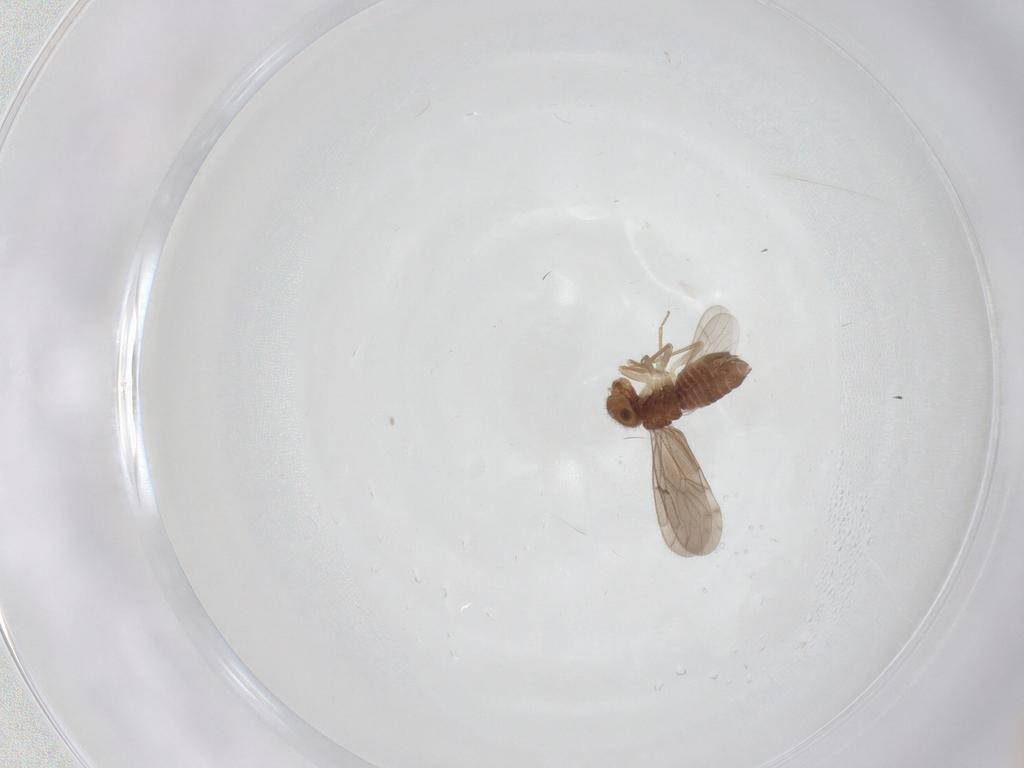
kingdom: Animalia
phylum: Arthropoda
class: Insecta
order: Psocodea
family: Ectopsocidae
